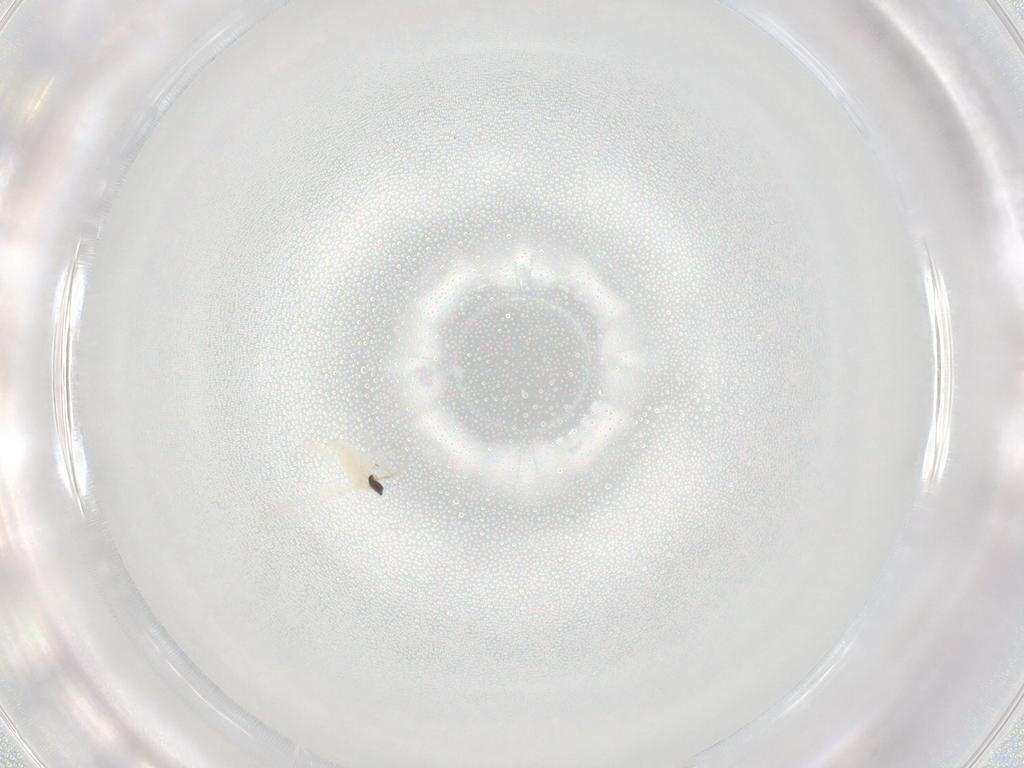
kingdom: Animalia
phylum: Arthropoda
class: Insecta
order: Diptera
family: Cecidomyiidae
